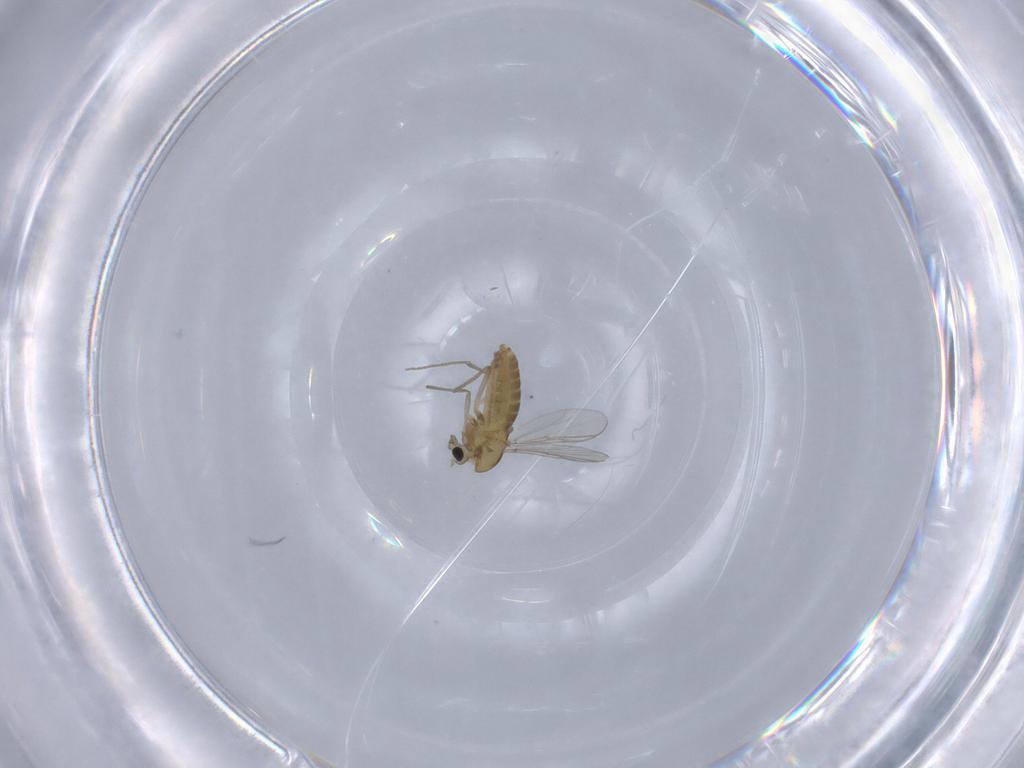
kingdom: Animalia
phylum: Arthropoda
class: Insecta
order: Diptera
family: Chironomidae
